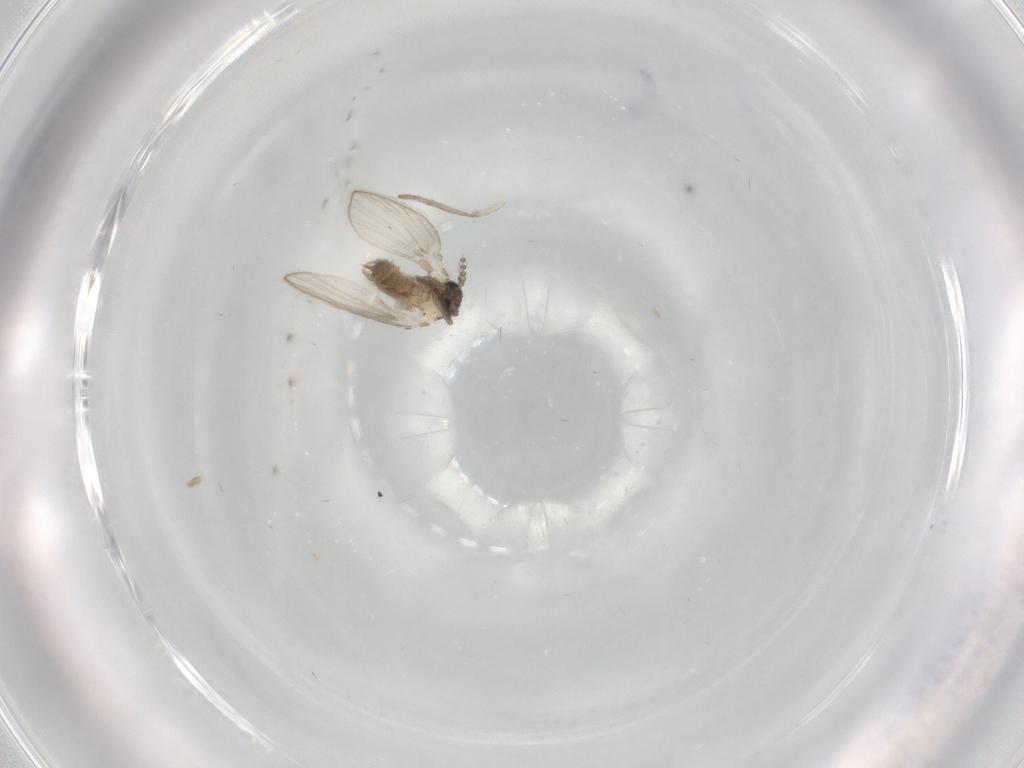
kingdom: Animalia
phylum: Arthropoda
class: Insecta
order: Diptera
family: Psychodidae
